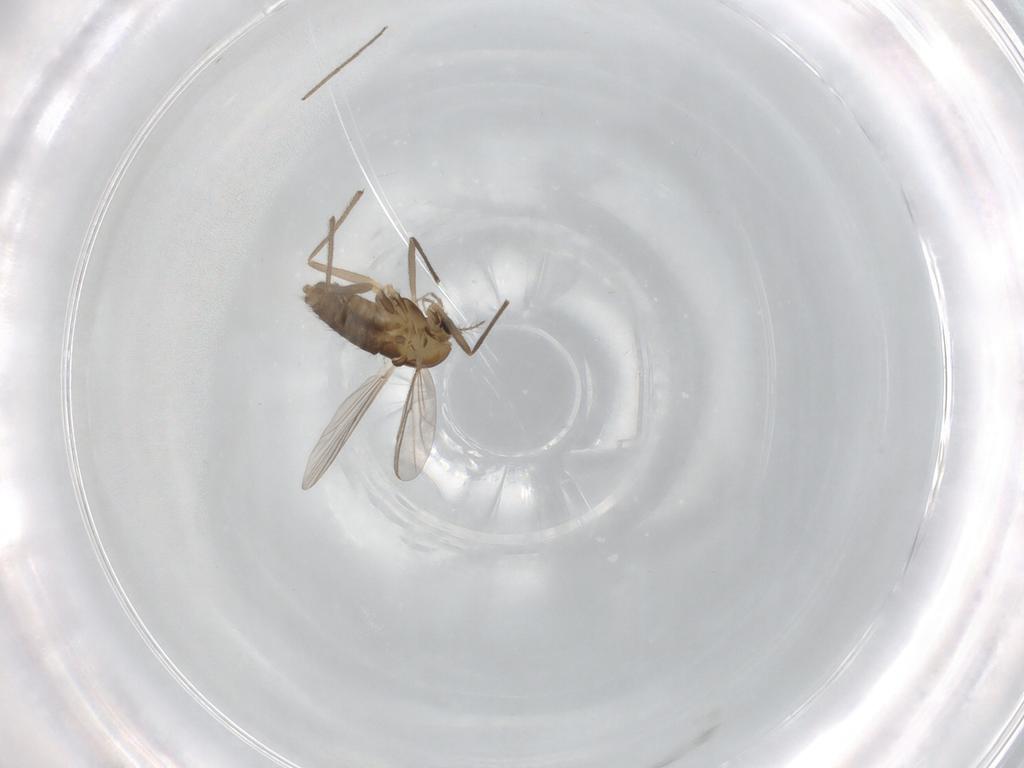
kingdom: Animalia
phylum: Arthropoda
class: Insecta
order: Diptera
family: Chironomidae
